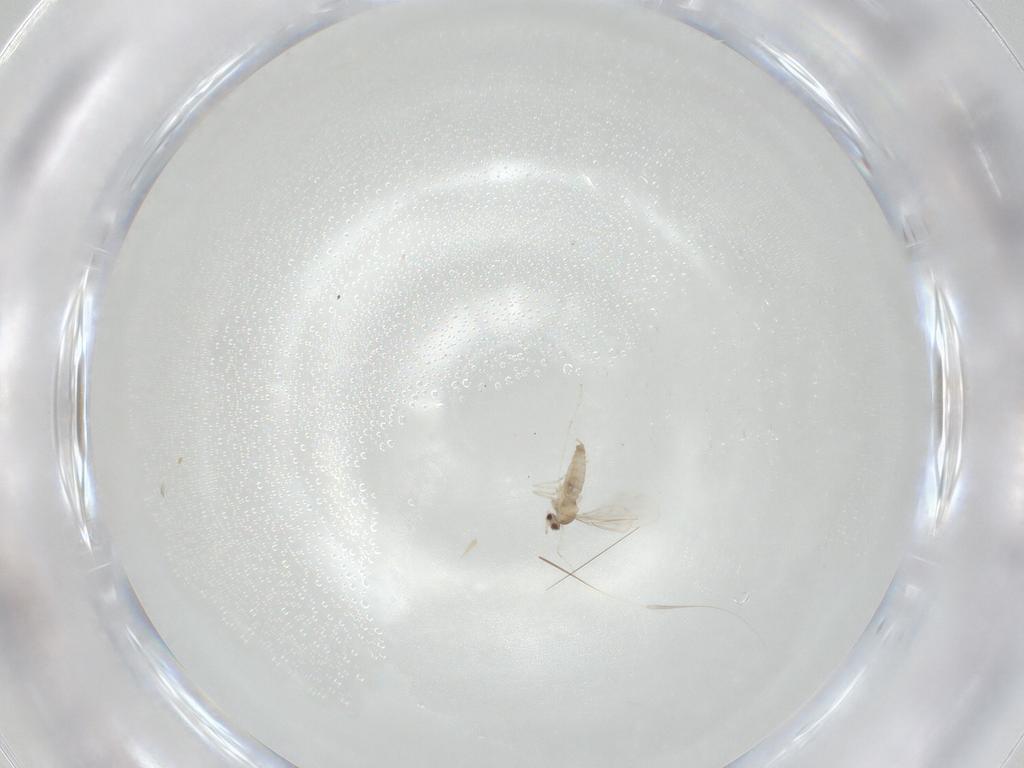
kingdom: Animalia
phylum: Arthropoda
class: Insecta
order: Diptera
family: Cecidomyiidae
